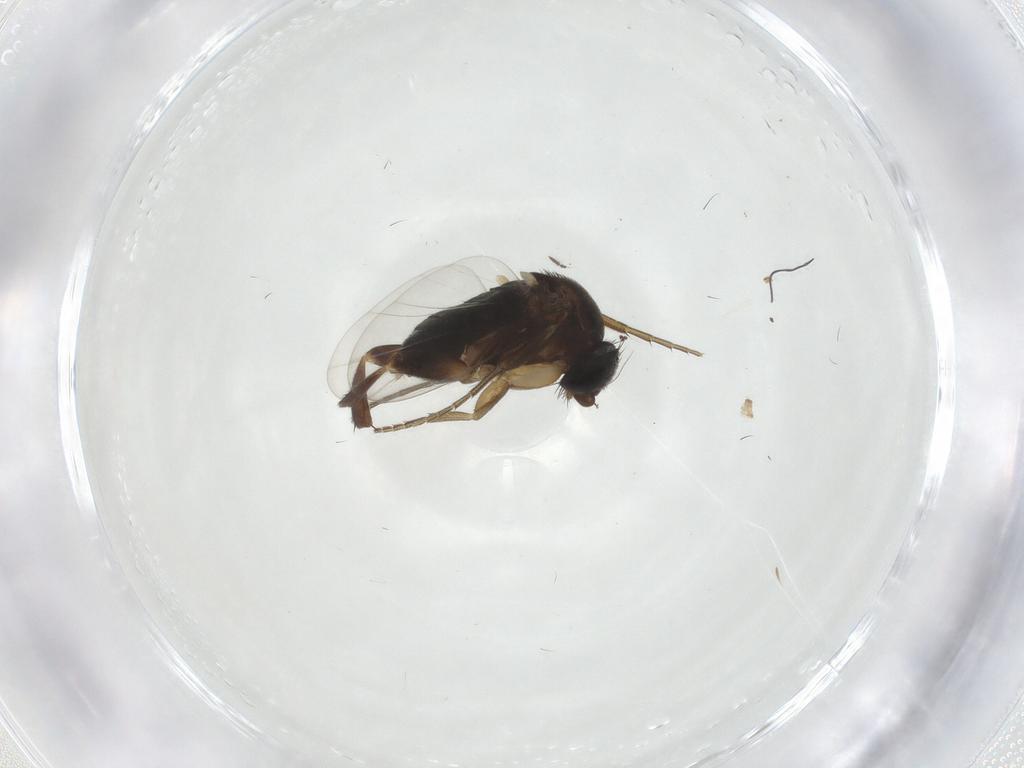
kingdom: Animalia
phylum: Arthropoda
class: Insecta
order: Diptera
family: Phoridae
